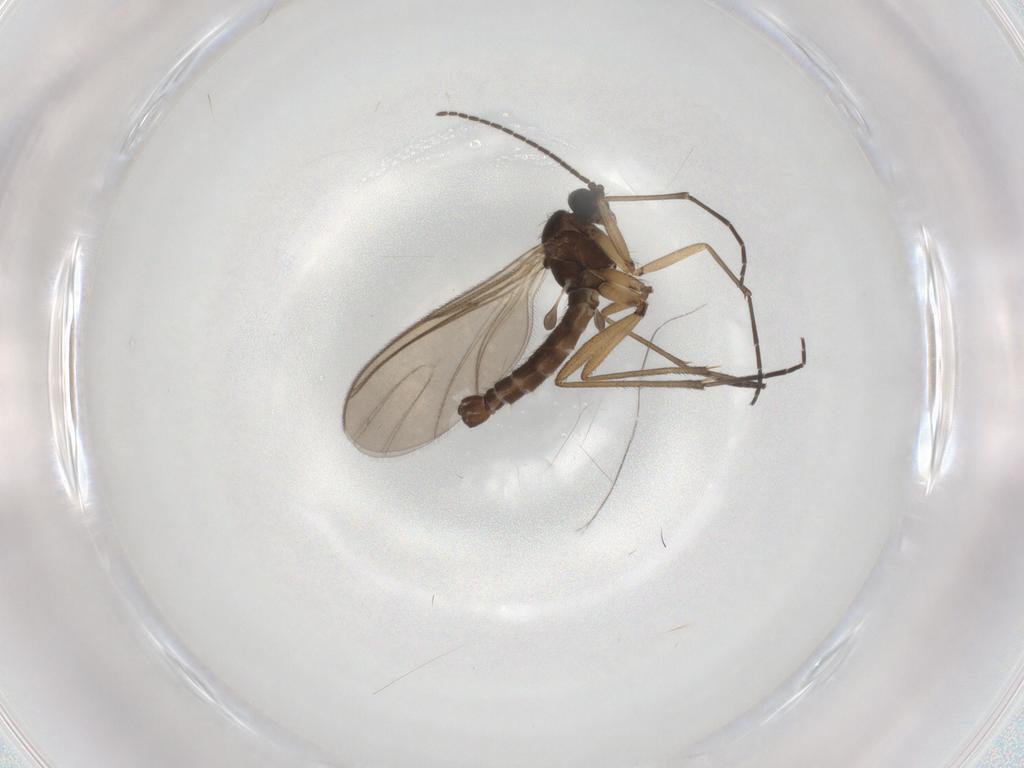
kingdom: Animalia
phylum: Arthropoda
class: Insecta
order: Diptera
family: Sciaridae
